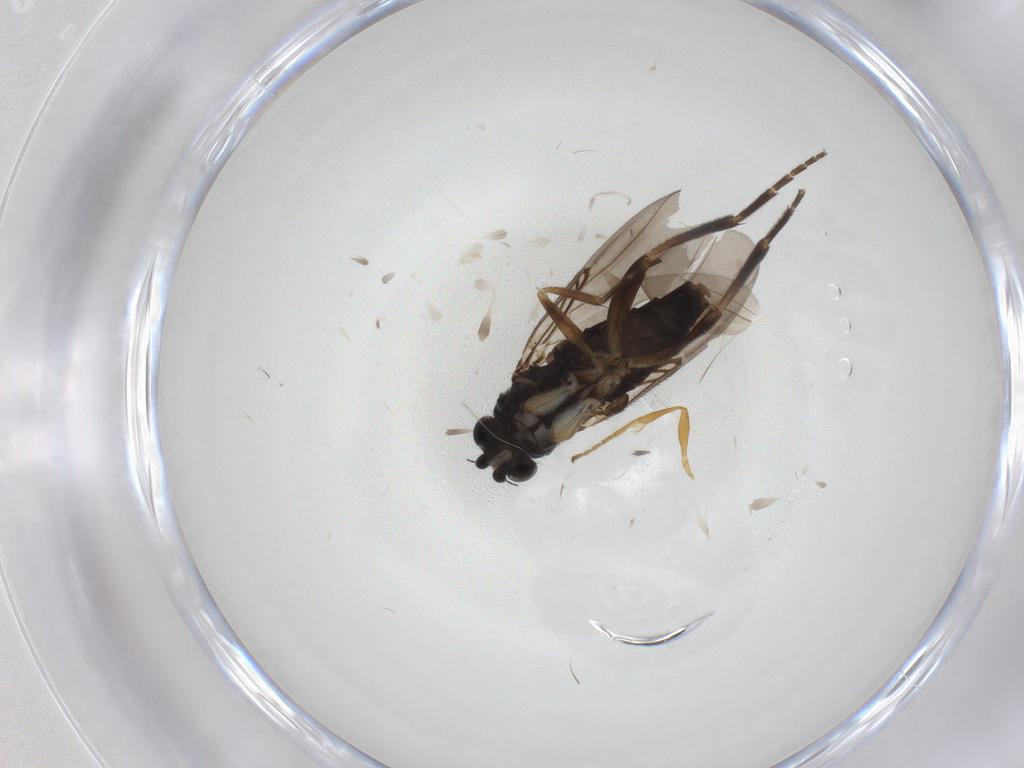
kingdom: Animalia
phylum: Arthropoda
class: Insecta
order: Diptera
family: Phoridae
